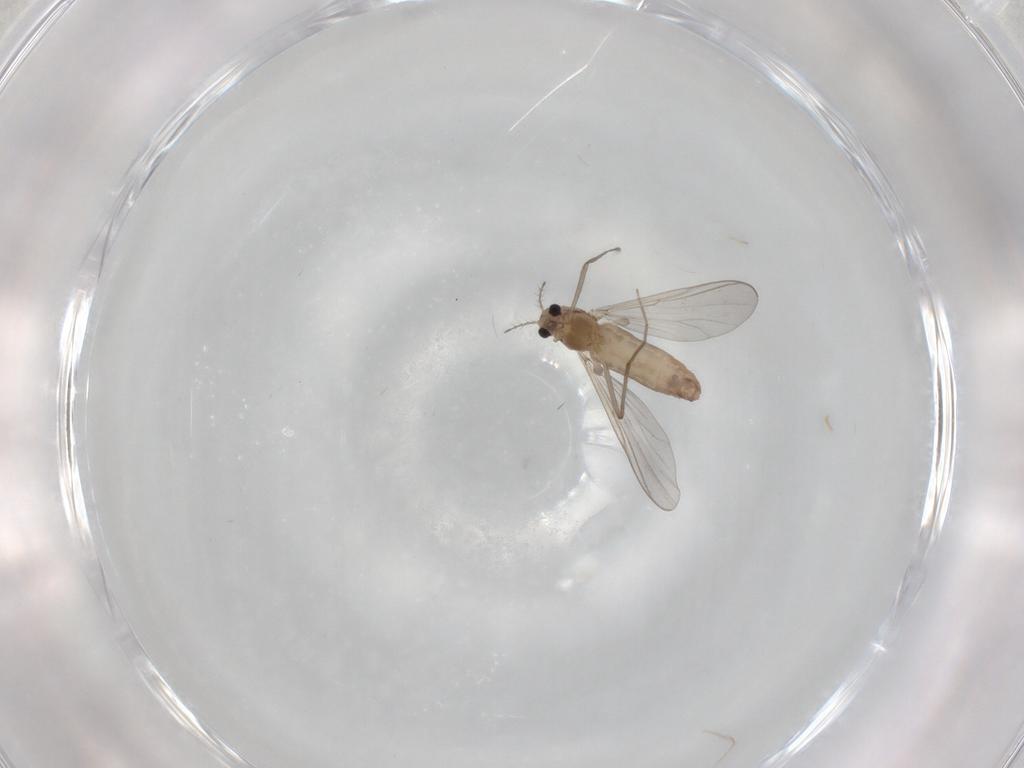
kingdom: Animalia
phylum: Arthropoda
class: Insecta
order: Diptera
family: Chironomidae
